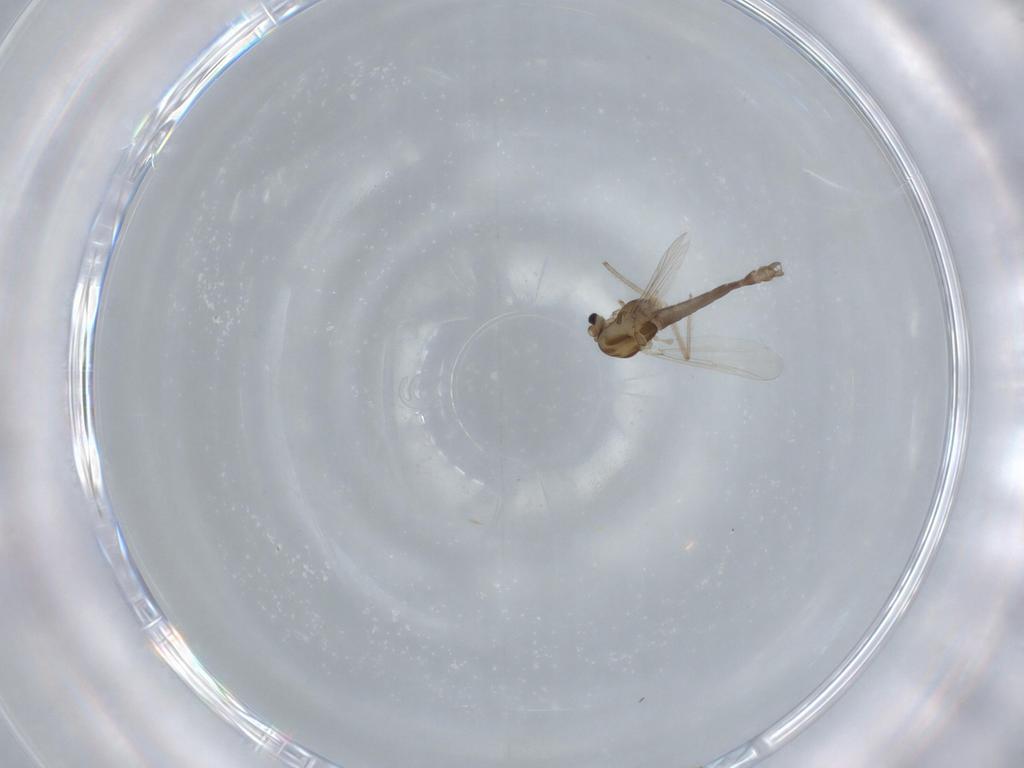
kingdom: Animalia
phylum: Arthropoda
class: Insecta
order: Diptera
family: Chironomidae
